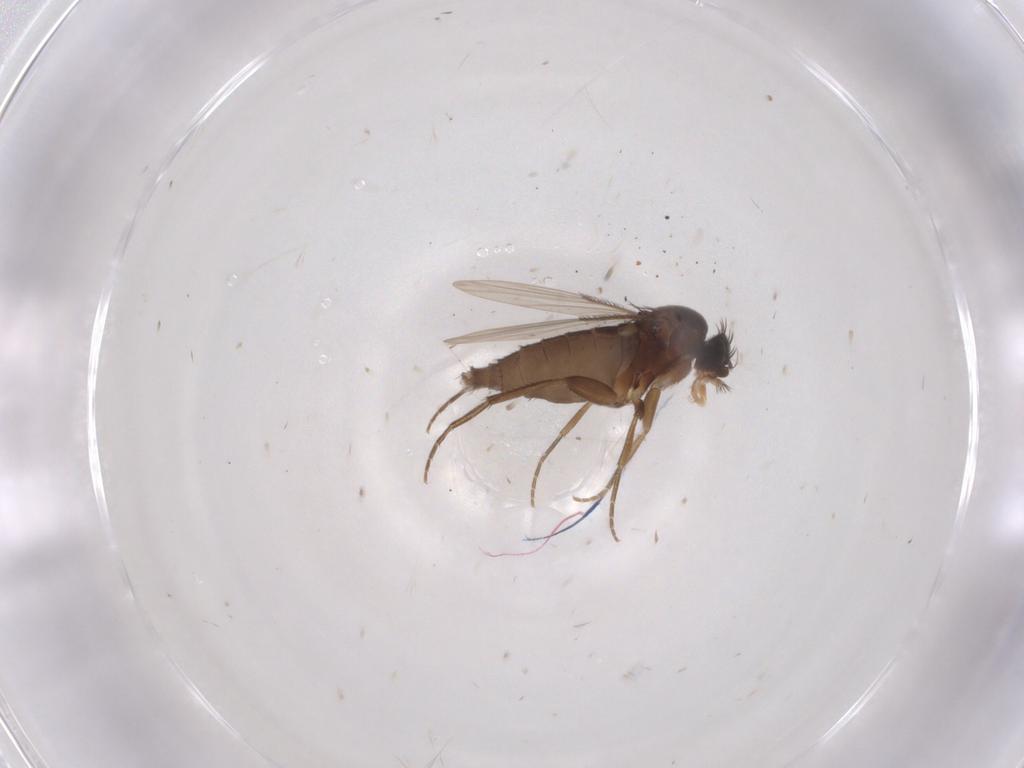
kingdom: Animalia
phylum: Arthropoda
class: Insecta
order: Diptera
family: Phoridae
